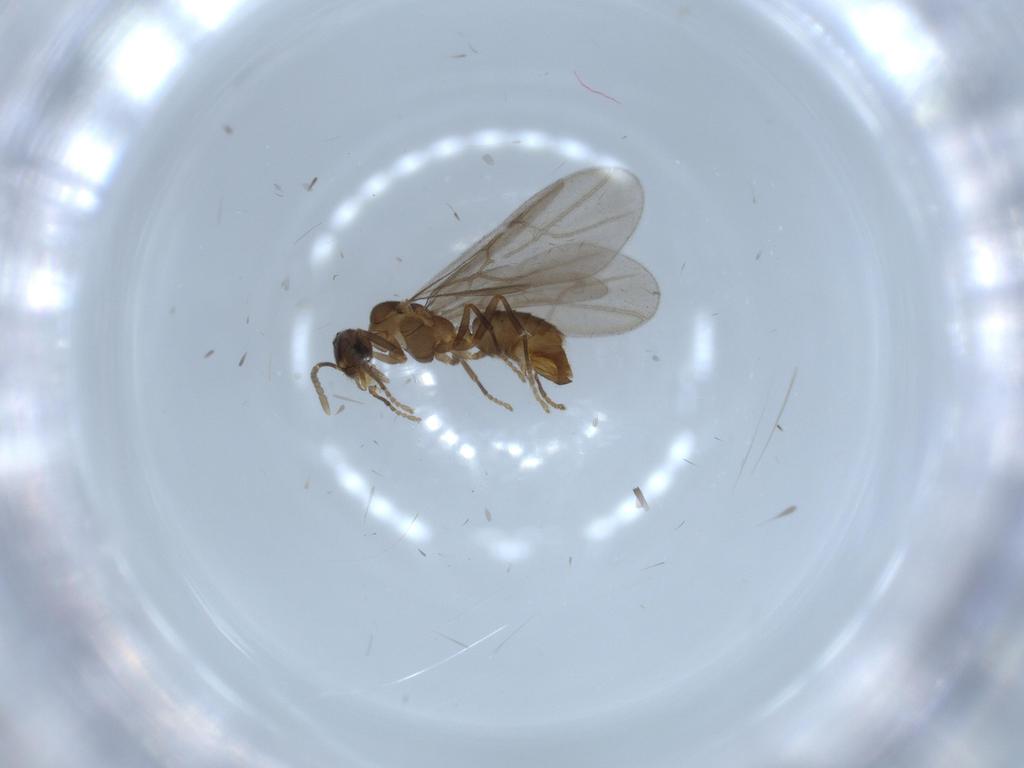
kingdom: Animalia
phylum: Arthropoda
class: Insecta
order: Hymenoptera
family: Formicidae
